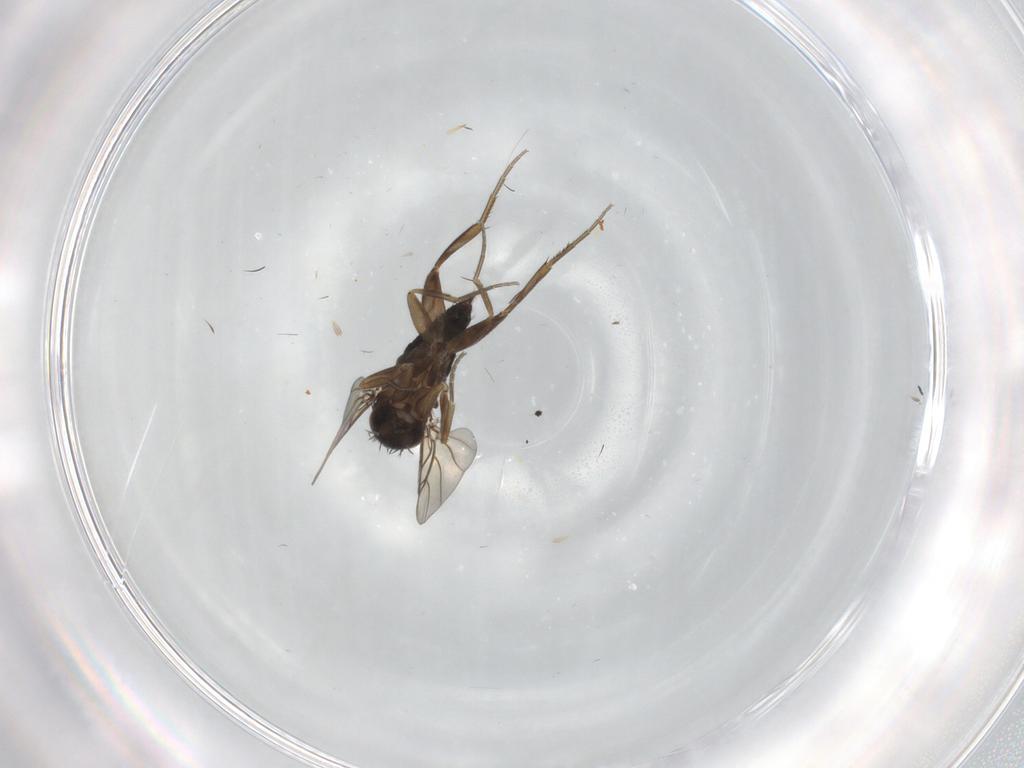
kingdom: Animalia
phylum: Arthropoda
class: Insecta
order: Diptera
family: Phoridae
